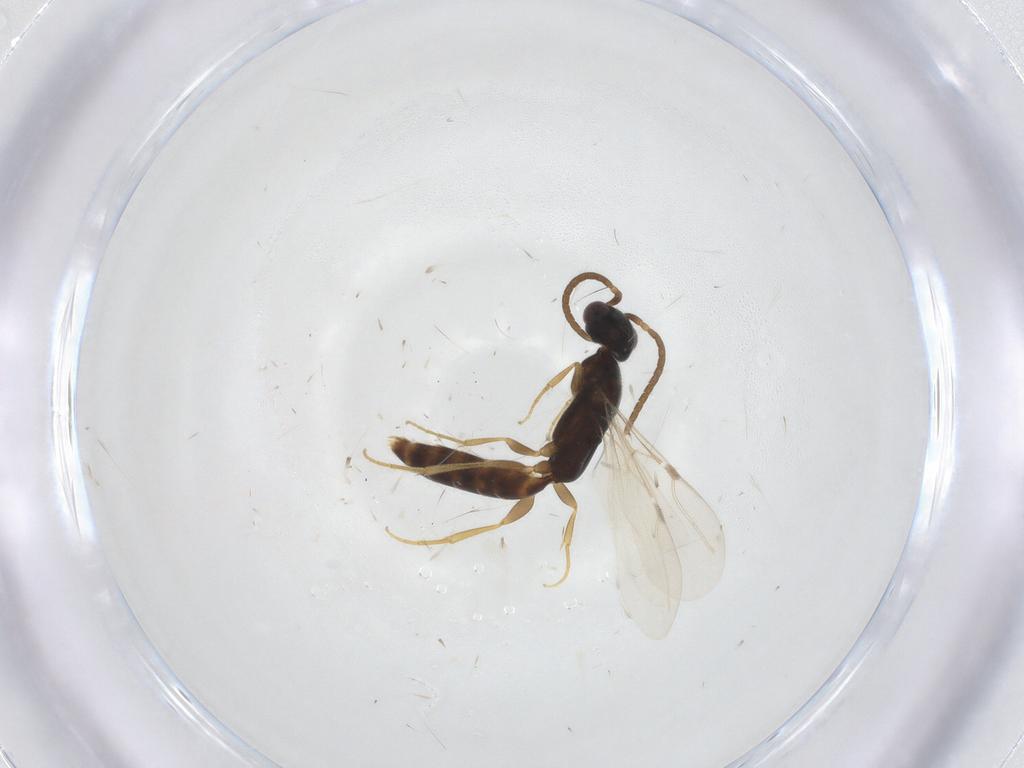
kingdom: Animalia
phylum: Arthropoda
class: Insecta
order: Hymenoptera
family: Bethylidae
